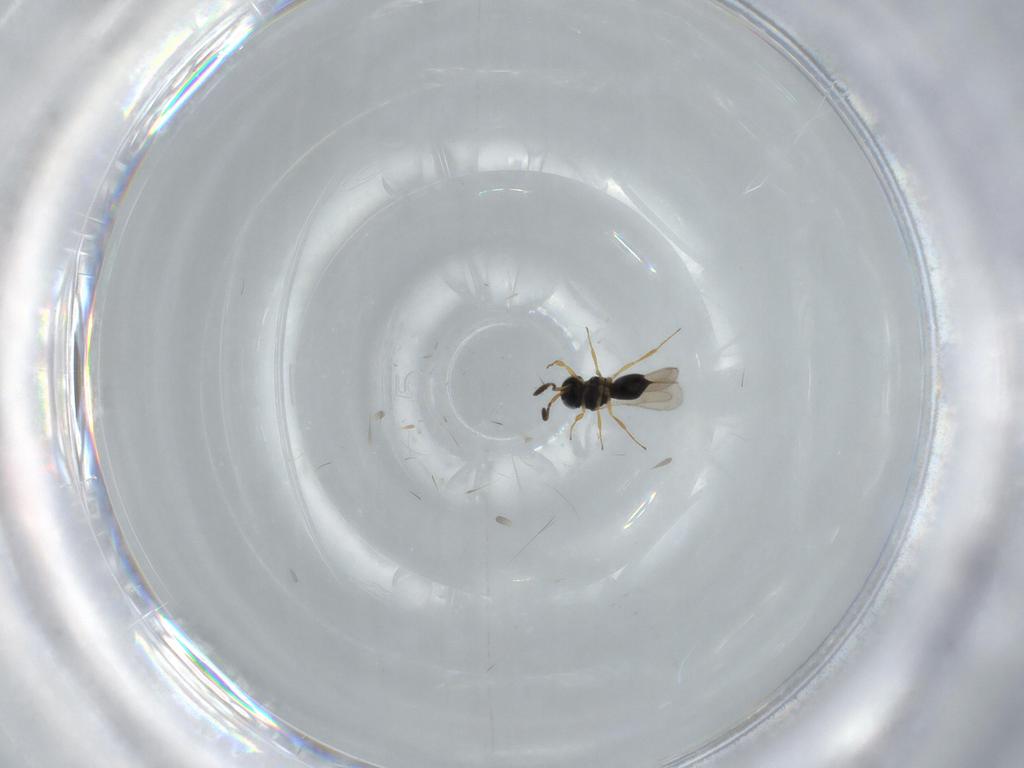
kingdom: Animalia
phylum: Arthropoda
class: Insecta
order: Hymenoptera
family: Scelionidae
